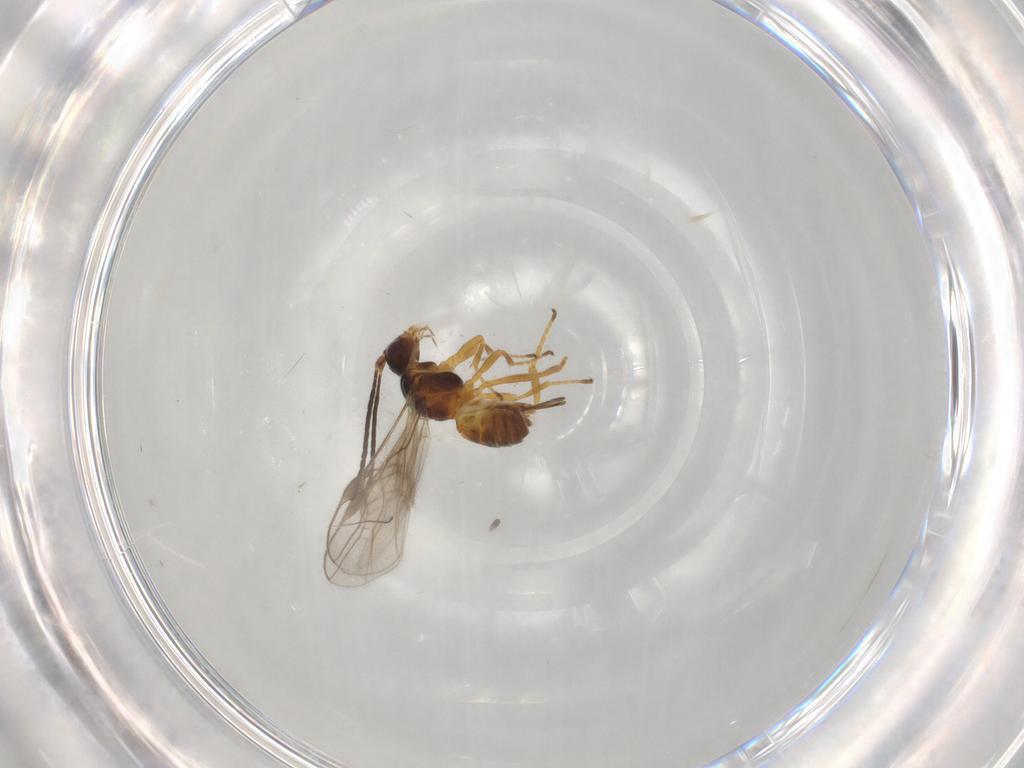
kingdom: Animalia
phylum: Arthropoda
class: Insecta
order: Hymenoptera
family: Braconidae
